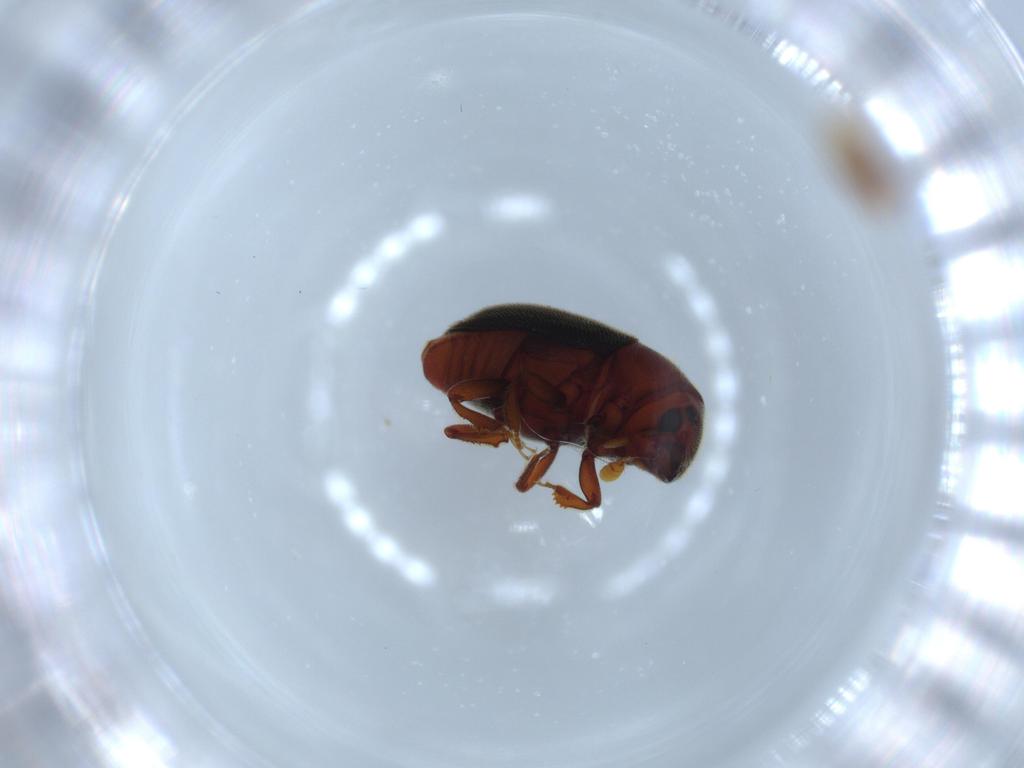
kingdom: Animalia
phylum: Arthropoda
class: Insecta
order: Coleoptera
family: Staphylinidae
